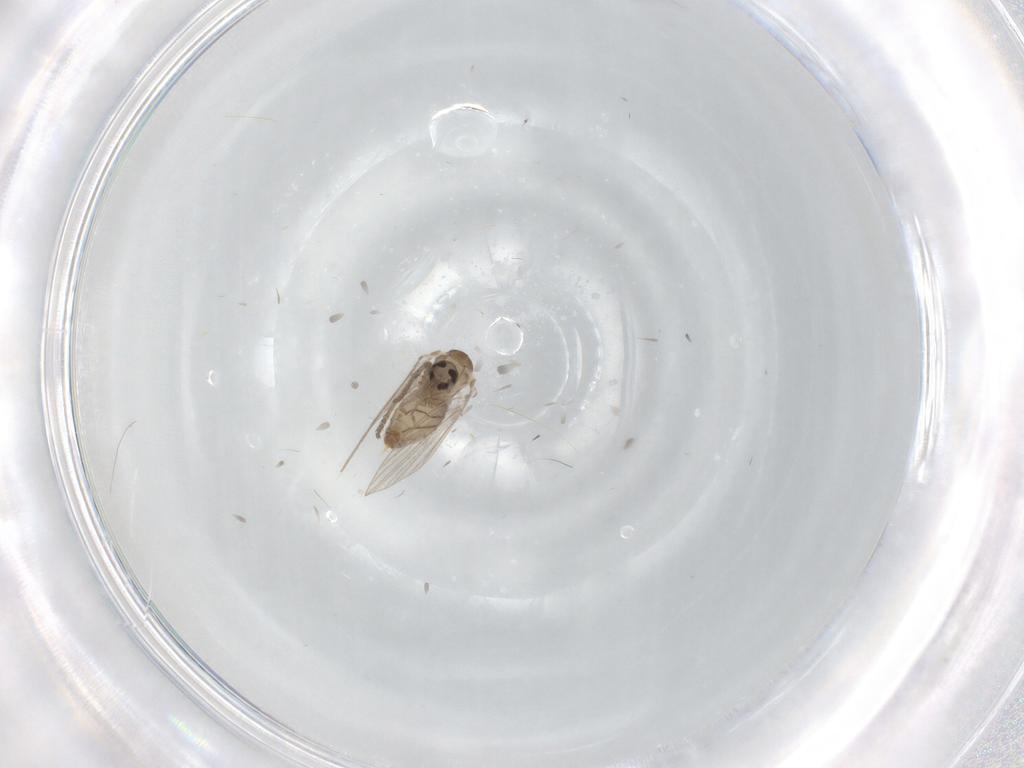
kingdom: Animalia
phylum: Arthropoda
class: Insecta
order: Diptera
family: Psychodidae
